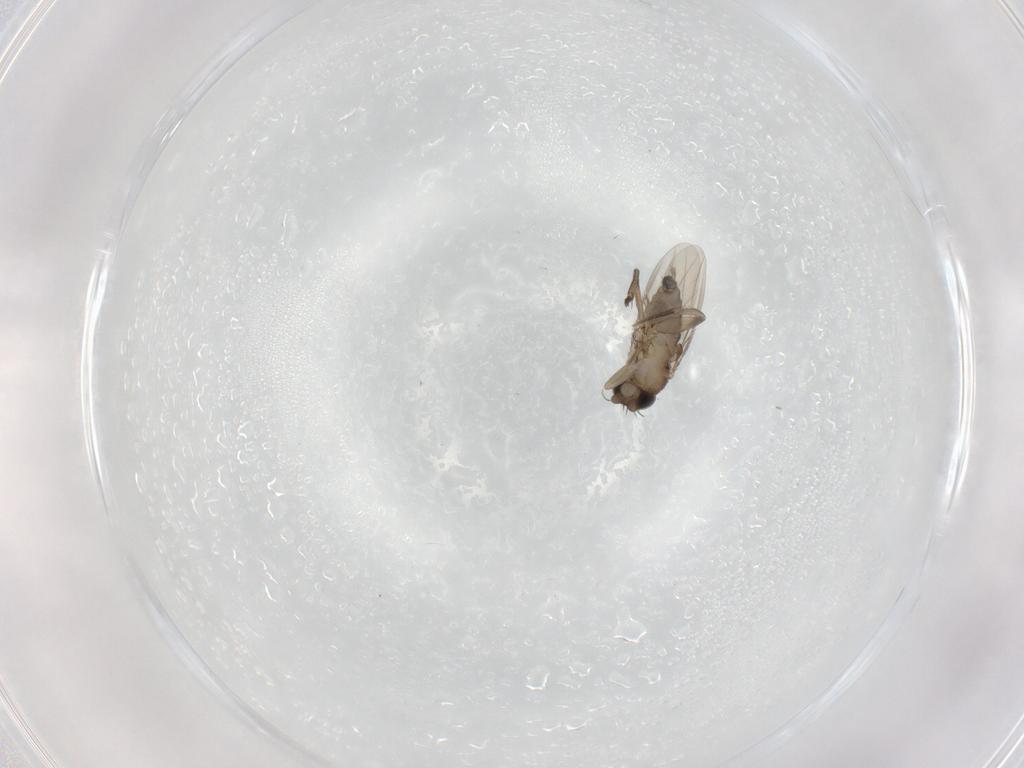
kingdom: Animalia
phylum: Arthropoda
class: Insecta
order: Diptera
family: Phoridae
